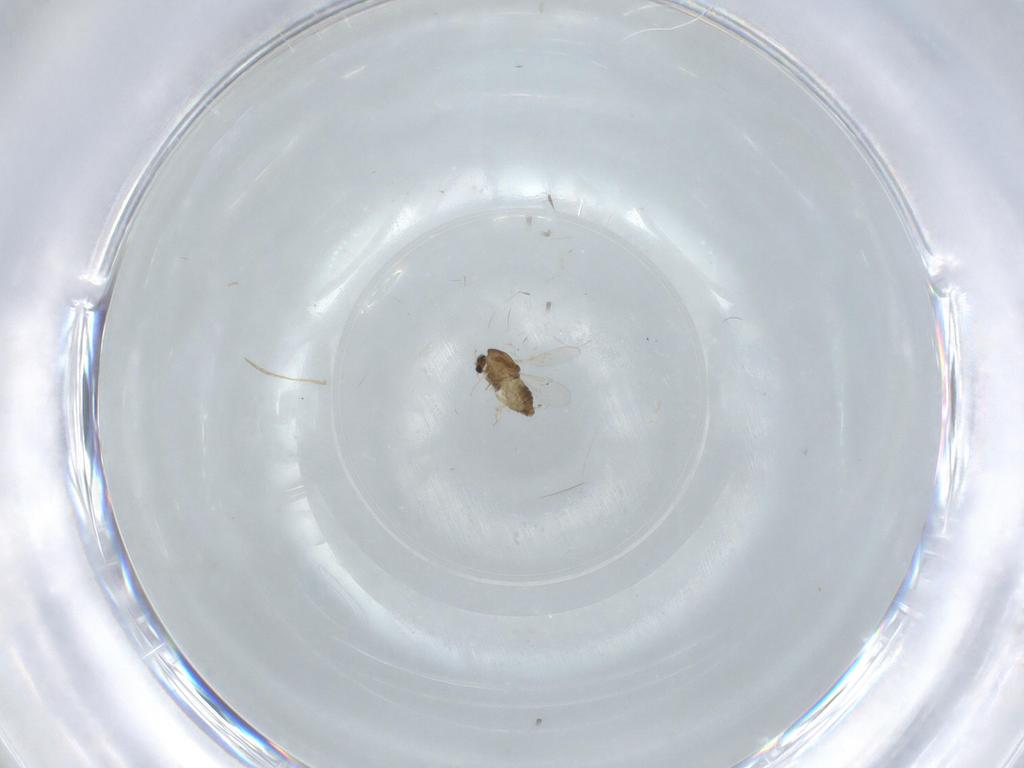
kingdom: Animalia
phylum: Arthropoda
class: Insecta
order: Diptera
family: Chironomidae
